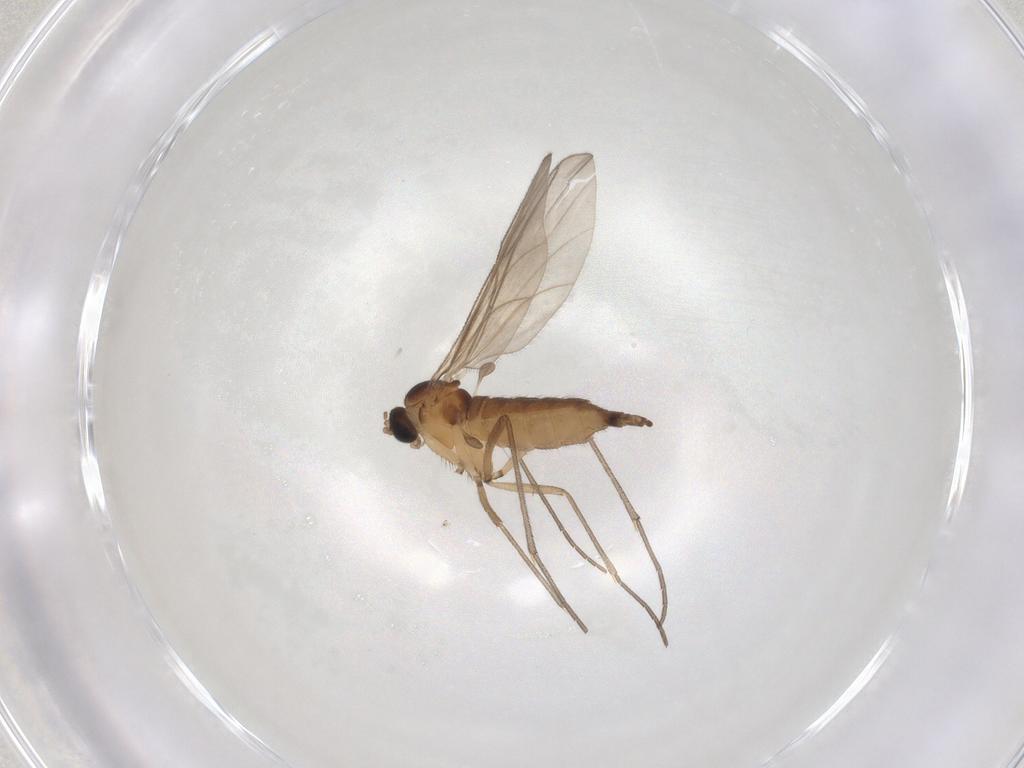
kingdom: Animalia
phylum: Arthropoda
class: Insecta
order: Diptera
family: Sciaridae
